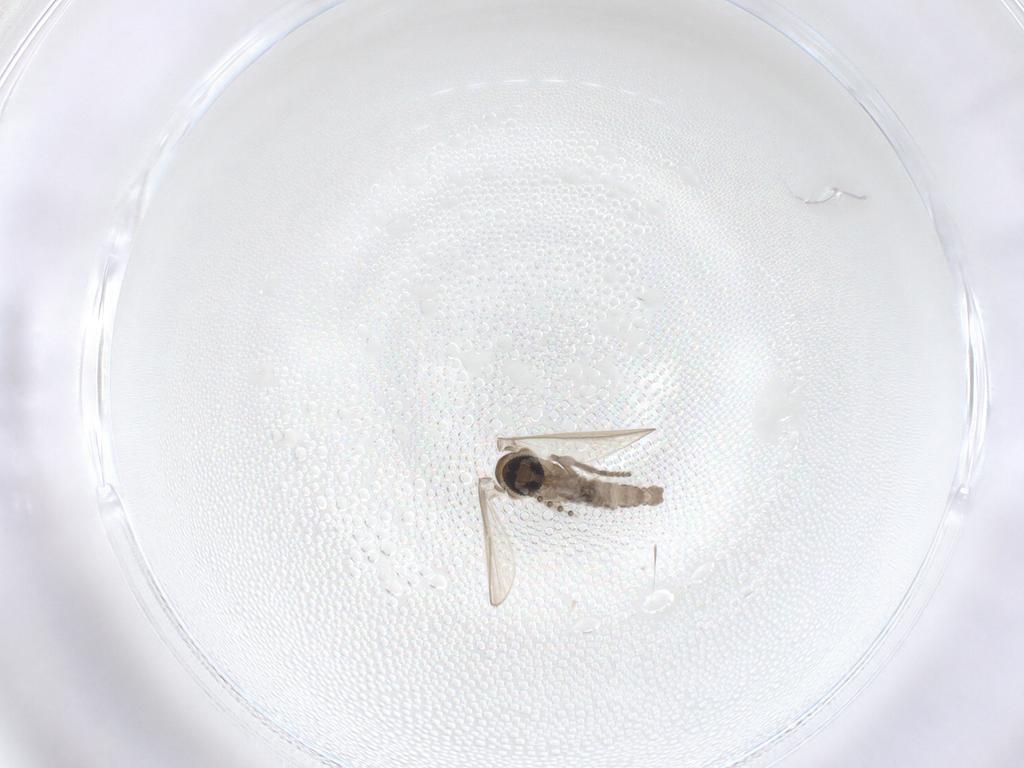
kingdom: Animalia
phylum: Arthropoda
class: Insecta
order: Diptera
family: Psychodidae
